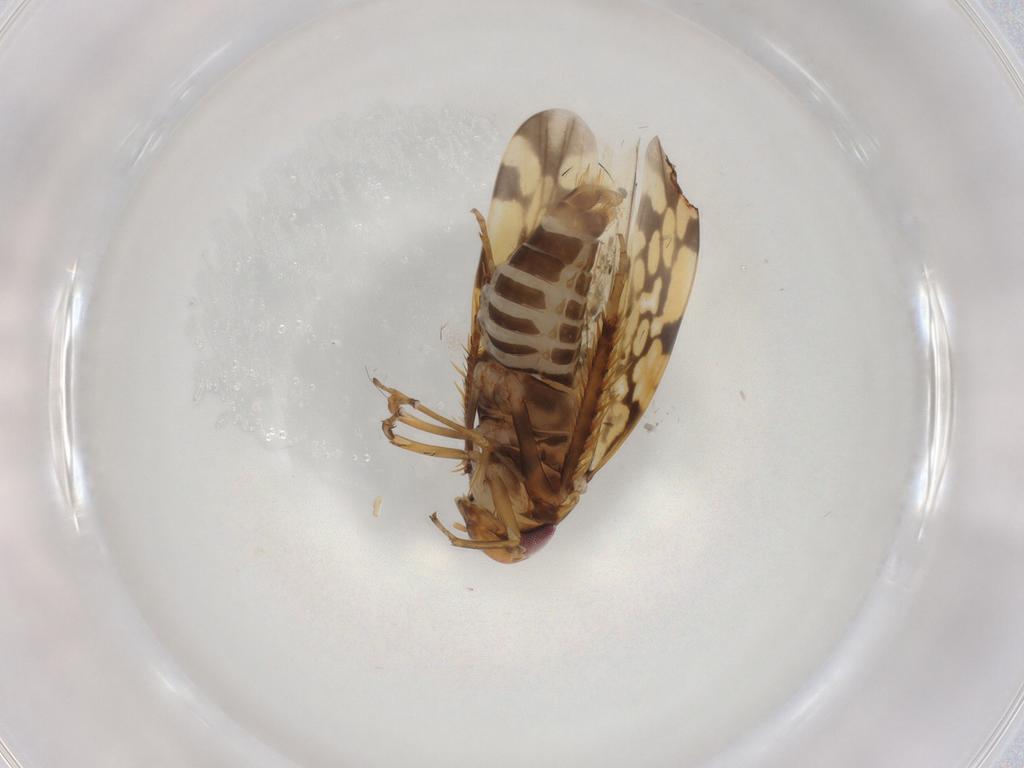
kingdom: Animalia
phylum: Arthropoda
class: Insecta
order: Hemiptera
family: Cicadellidae
